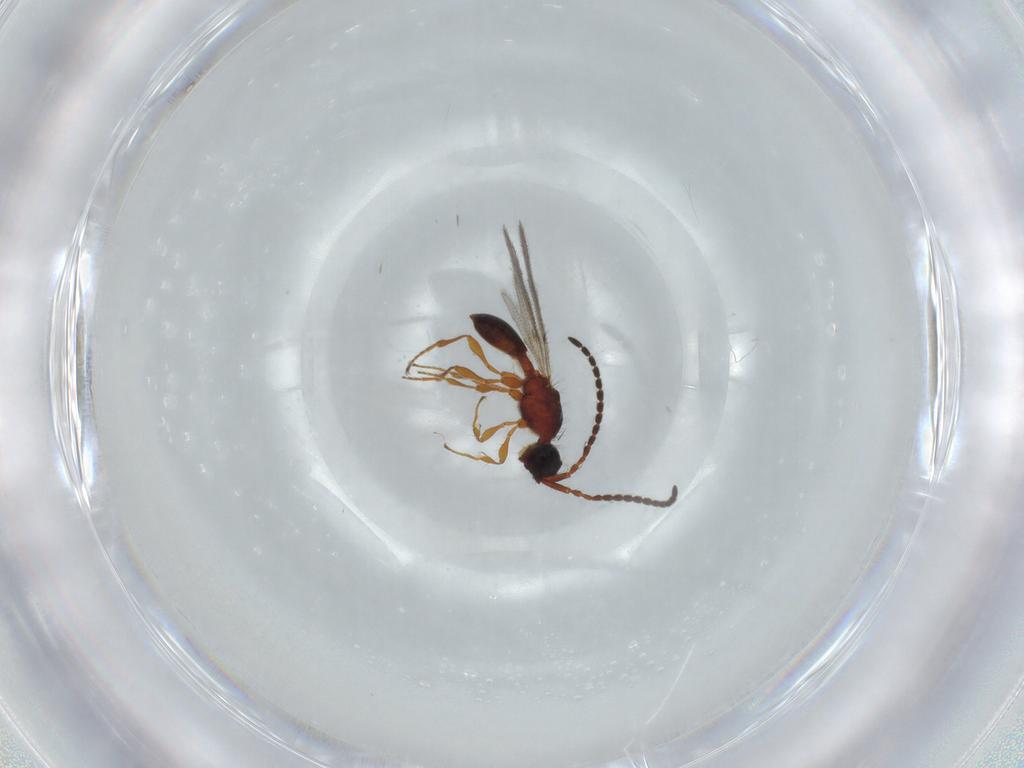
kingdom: Animalia
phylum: Arthropoda
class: Insecta
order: Hymenoptera
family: Diapriidae
